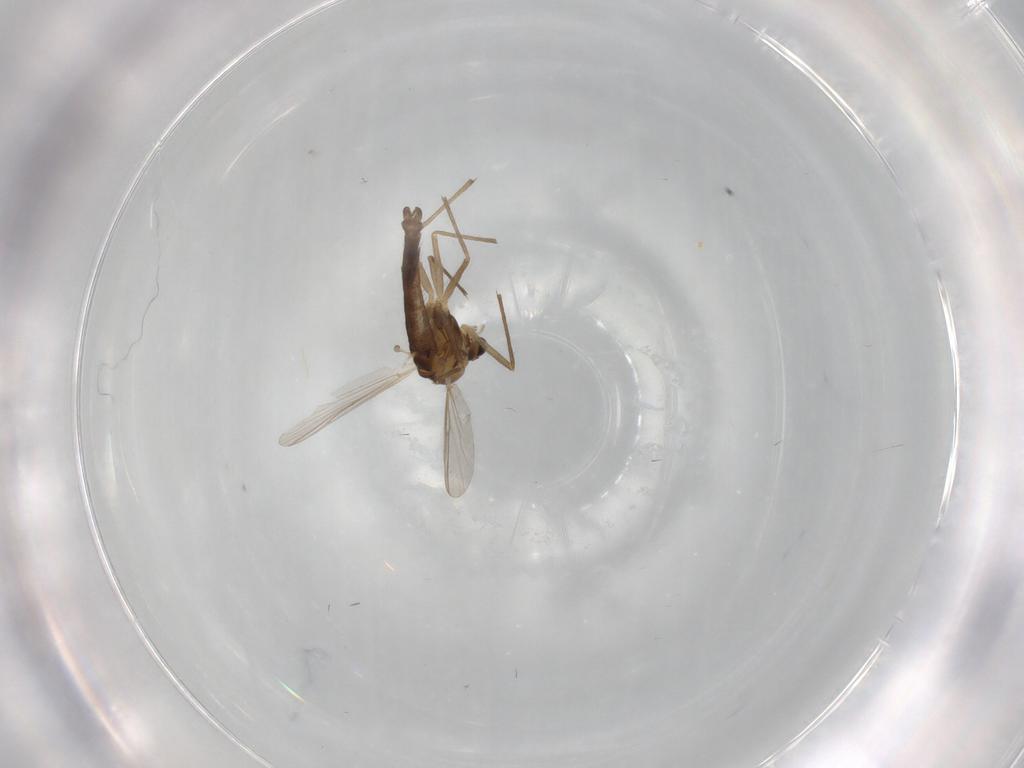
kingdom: Animalia
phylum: Arthropoda
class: Insecta
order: Diptera
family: Chironomidae
